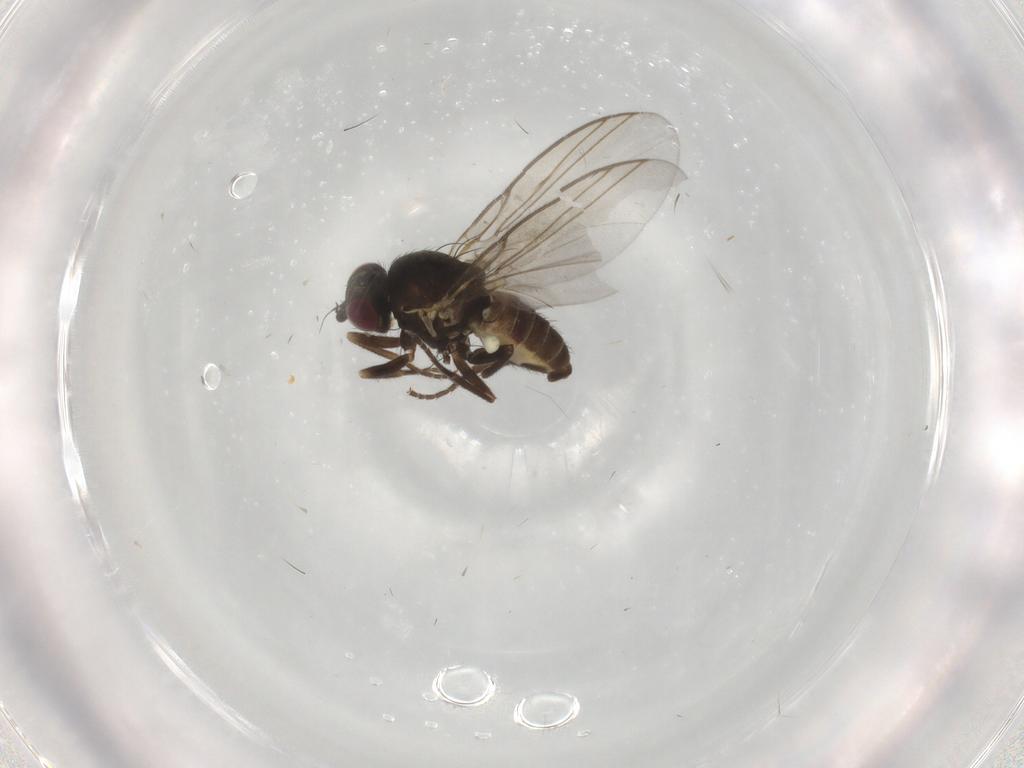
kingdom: Animalia
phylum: Arthropoda
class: Insecta
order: Diptera
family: Agromyzidae
